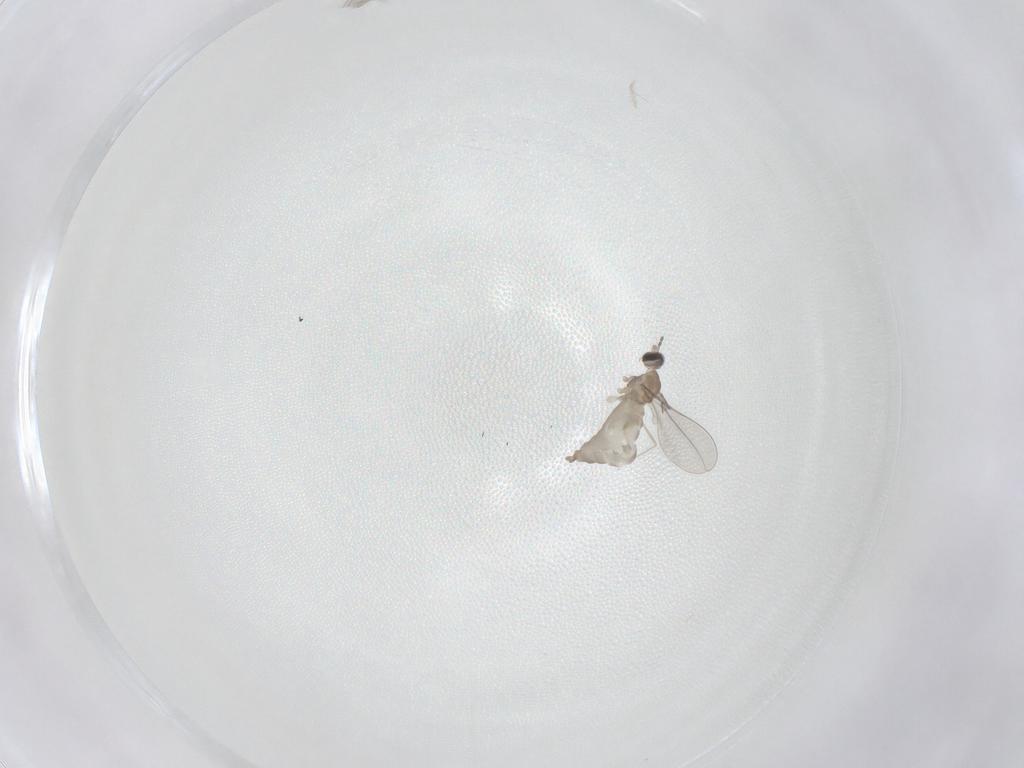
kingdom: Animalia
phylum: Arthropoda
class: Insecta
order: Diptera
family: Cecidomyiidae
